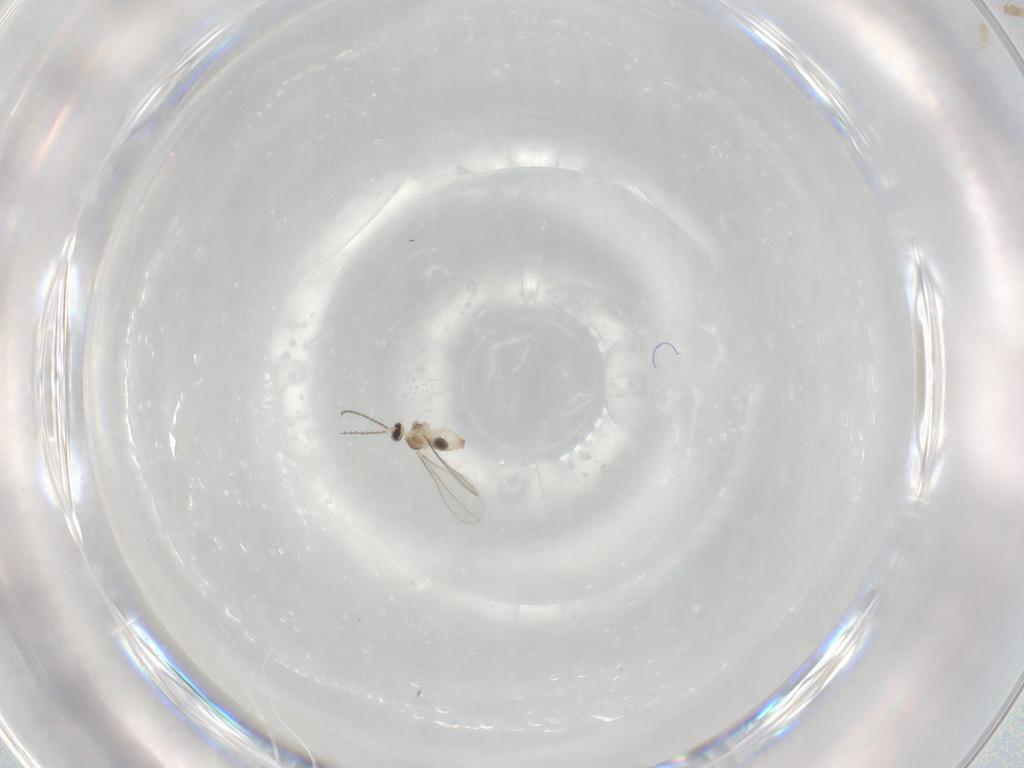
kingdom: Animalia
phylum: Arthropoda
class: Insecta
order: Diptera
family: Cecidomyiidae
